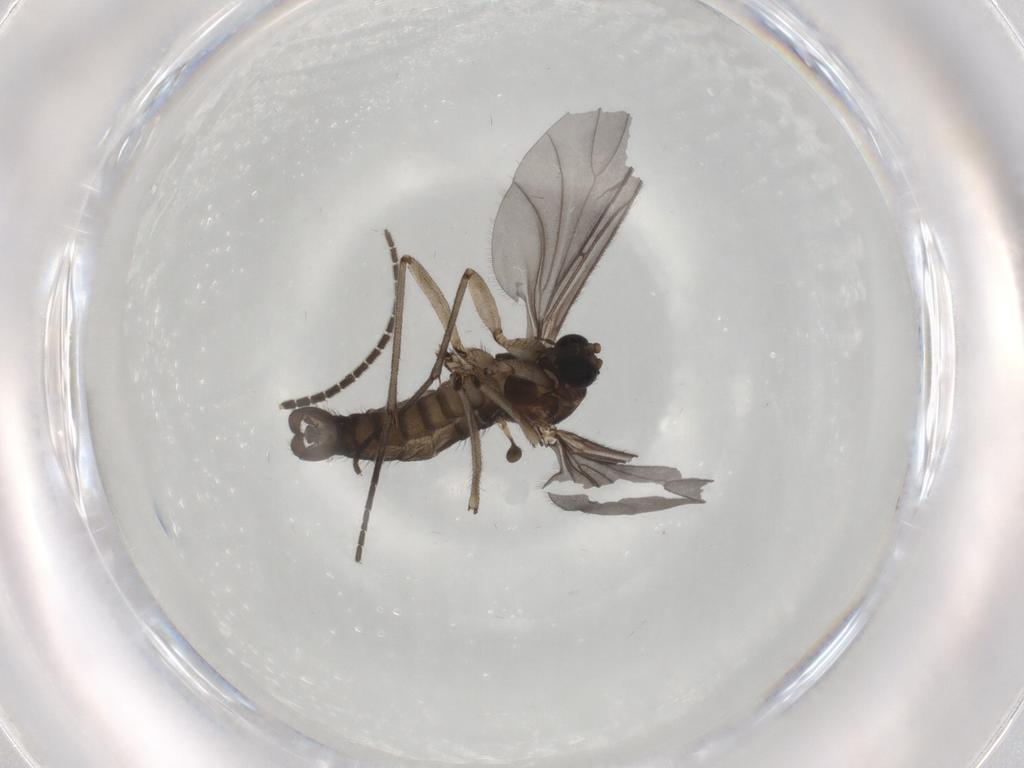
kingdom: Animalia
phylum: Arthropoda
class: Insecta
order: Diptera
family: Sciaridae
